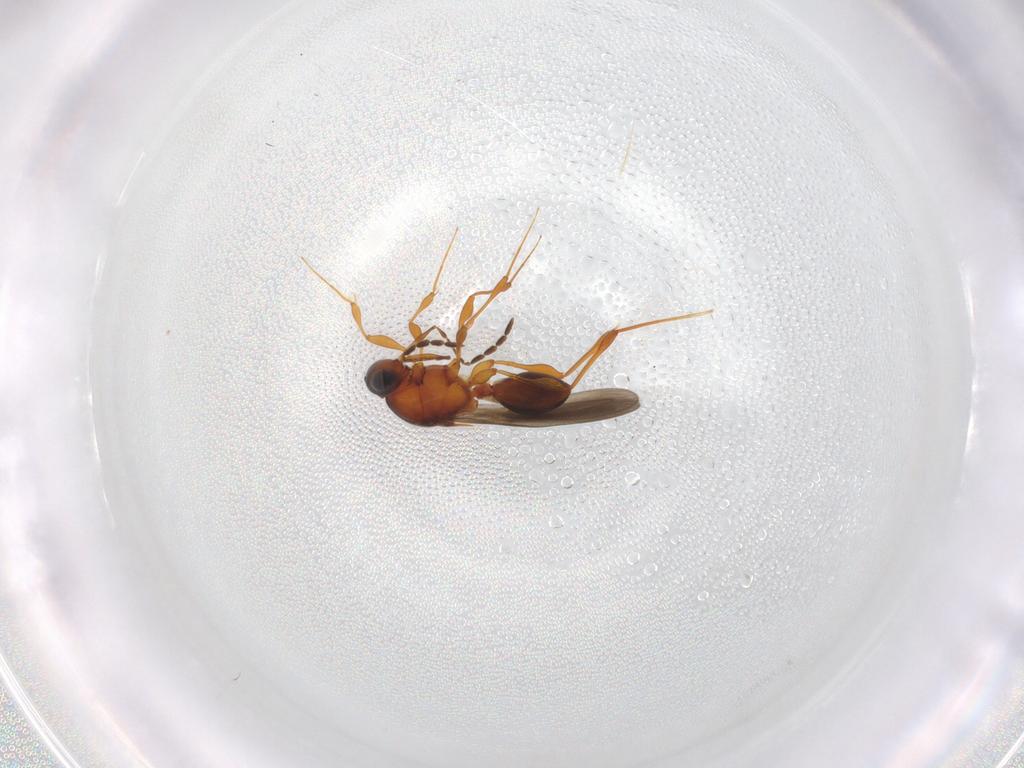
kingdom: Animalia
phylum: Arthropoda
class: Insecta
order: Hymenoptera
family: Platygastridae
